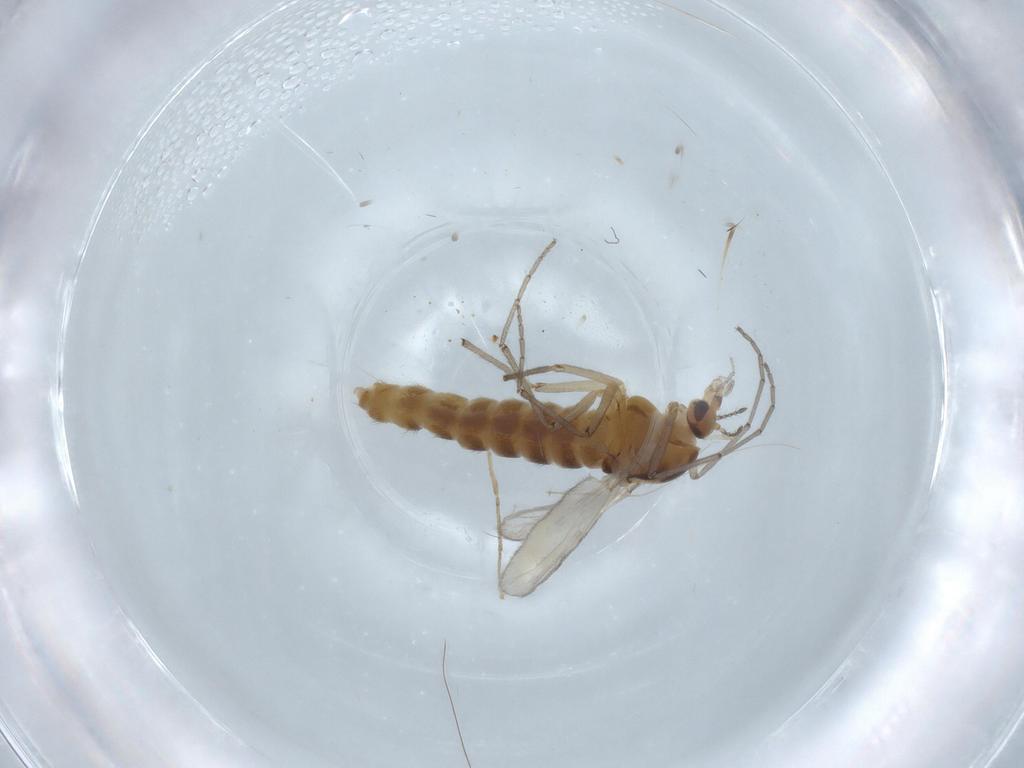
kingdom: Animalia
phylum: Arthropoda
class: Insecta
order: Diptera
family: Chironomidae
